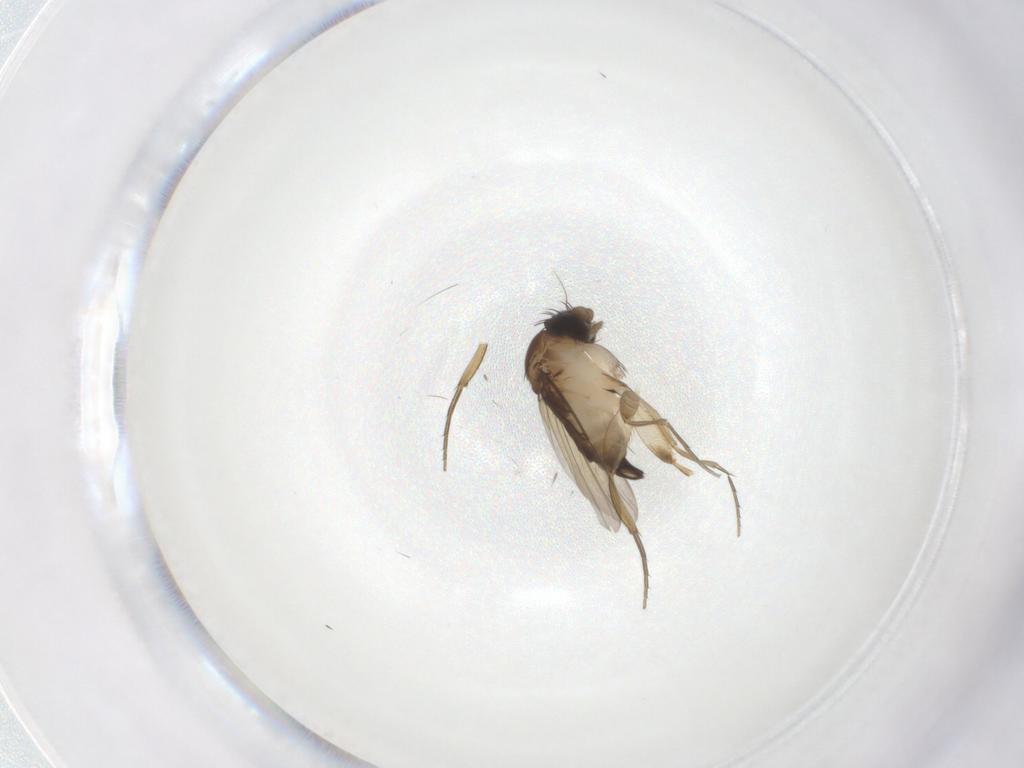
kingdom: Animalia
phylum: Arthropoda
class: Insecta
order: Diptera
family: Phoridae
